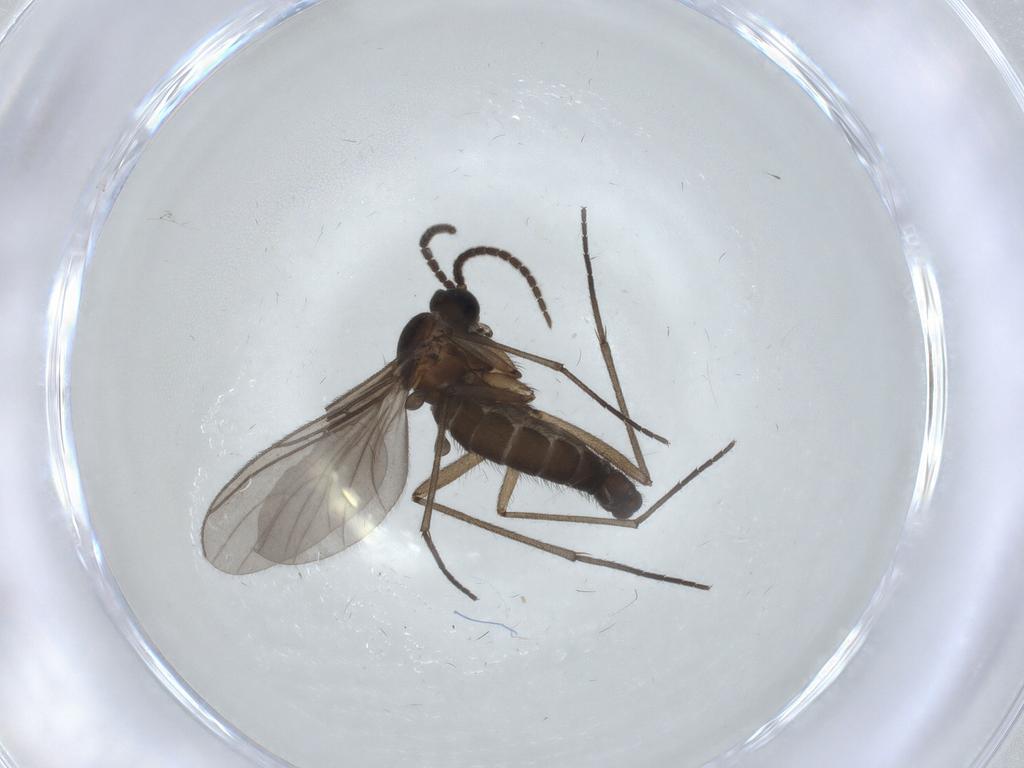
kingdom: Animalia
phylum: Arthropoda
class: Insecta
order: Diptera
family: Sciaridae
